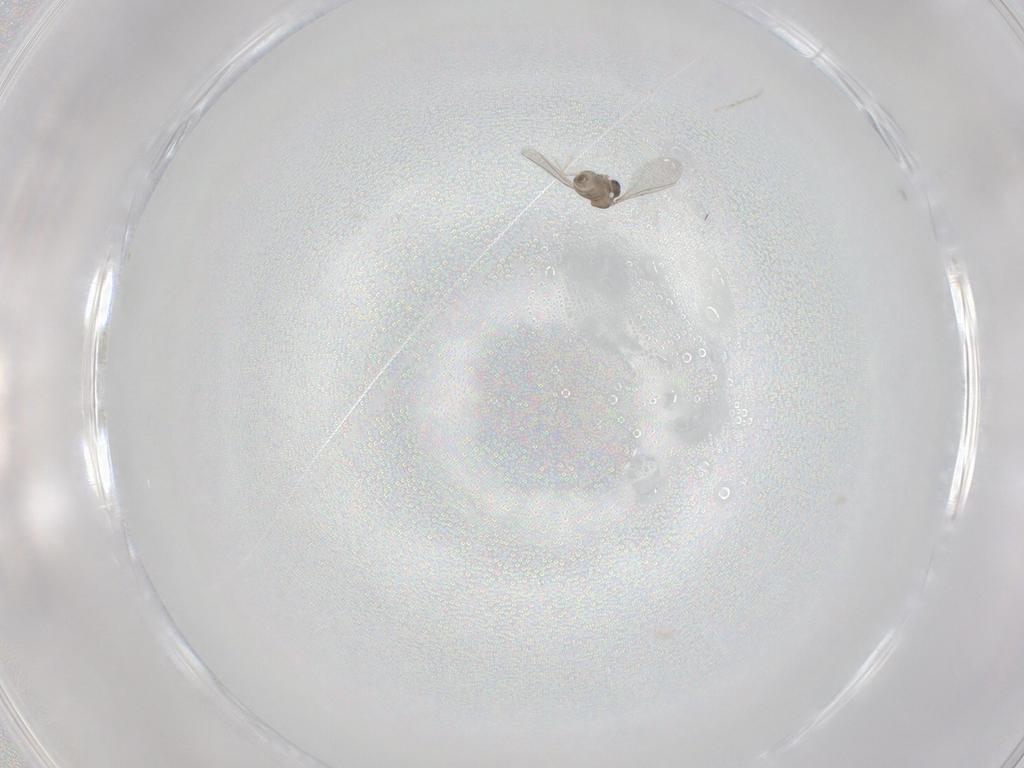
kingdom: Animalia
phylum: Arthropoda
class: Insecta
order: Diptera
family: Cecidomyiidae
